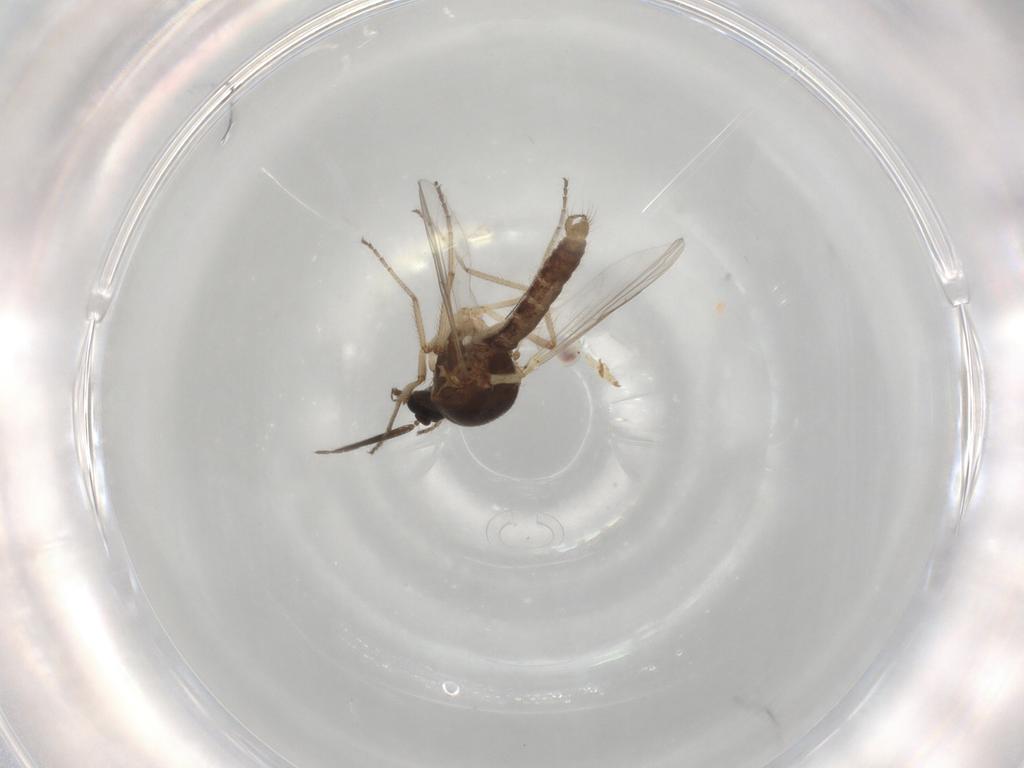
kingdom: Animalia
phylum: Arthropoda
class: Insecta
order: Diptera
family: Ceratopogonidae
